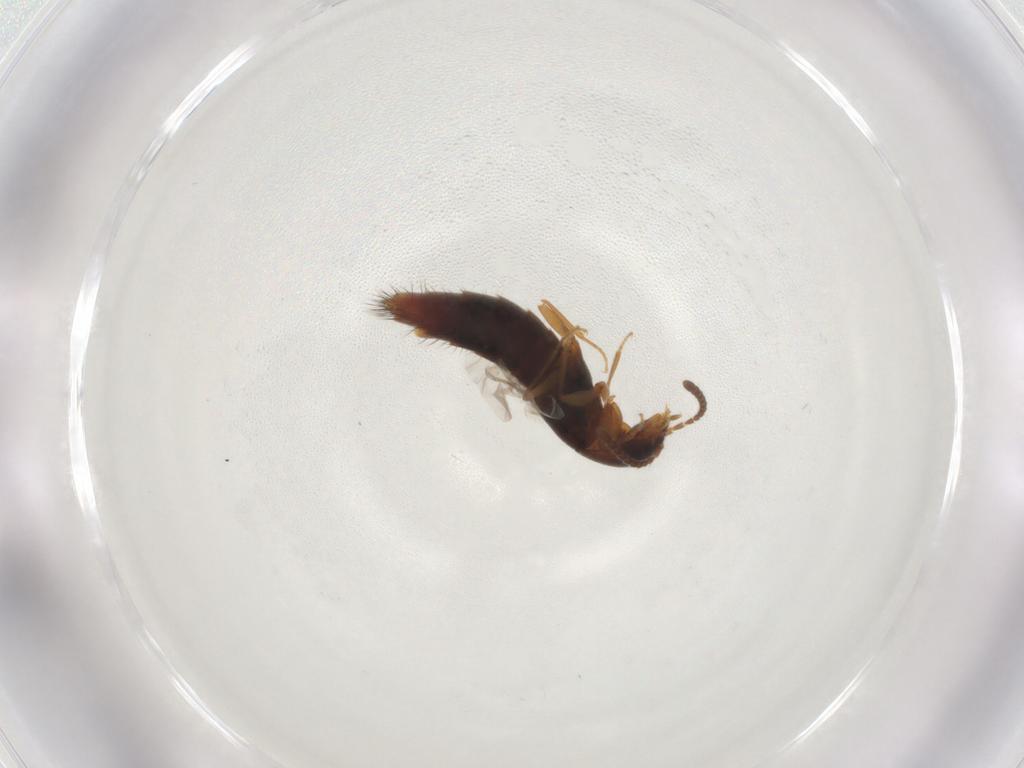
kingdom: Animalia
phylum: Arthropoda
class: Insecta
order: Coleoptera
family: Staphylinidae
